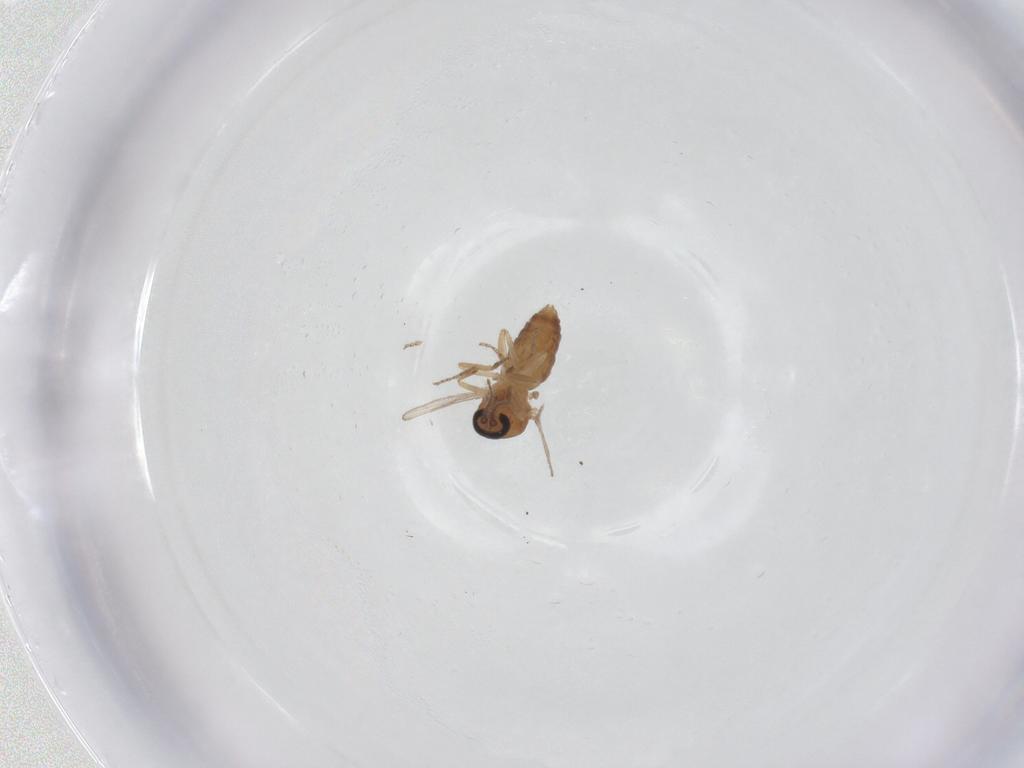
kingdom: Animalia
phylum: Arthropoda
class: Insecta
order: Diptera
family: Ceratopogonidae
